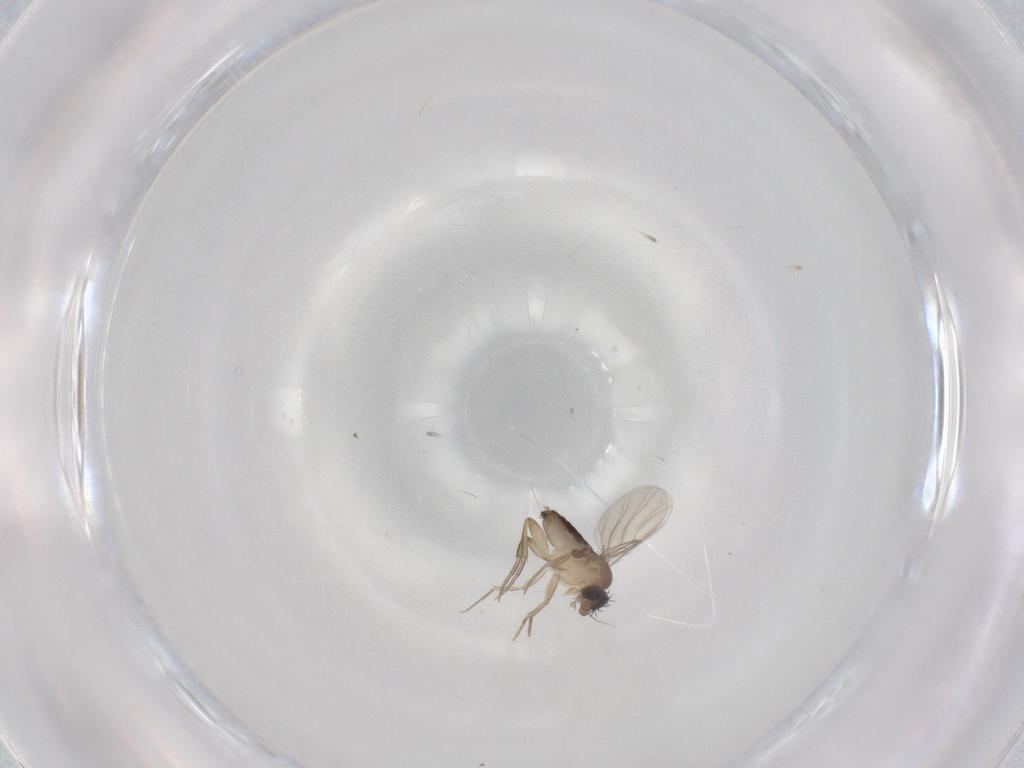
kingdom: Animalia
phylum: Arthropoda
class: Insecta
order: Diptera
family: Phoridae
